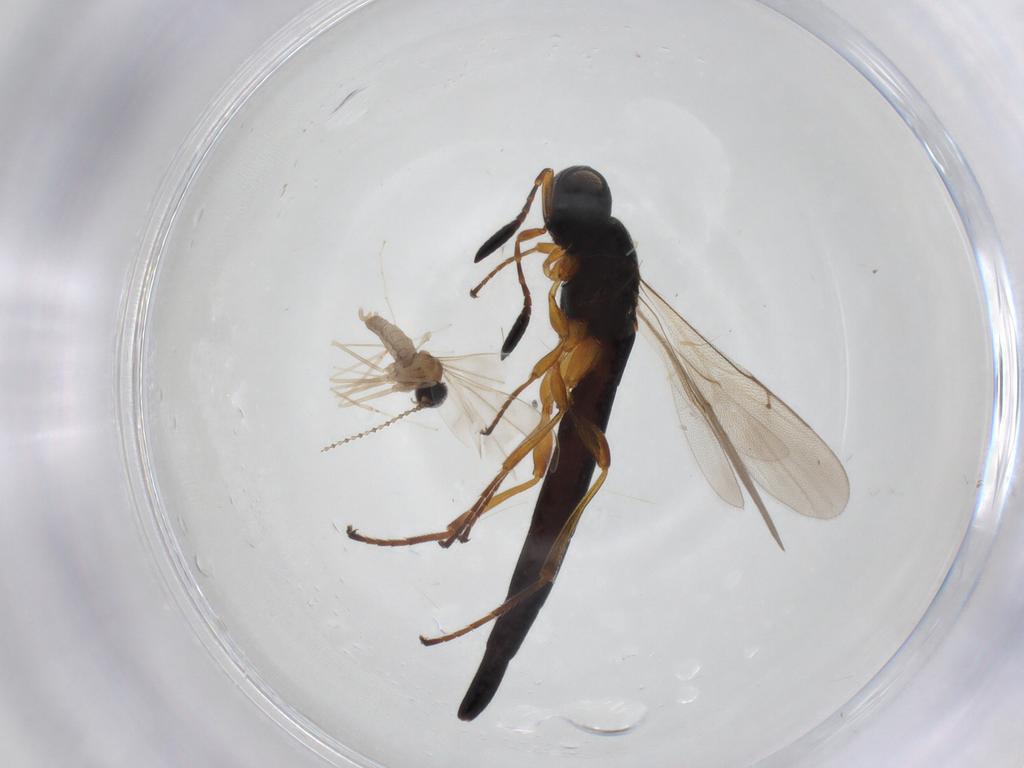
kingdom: Animalia
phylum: Arthropoda
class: Insecta
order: Diptera
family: Cecidomyiidae
